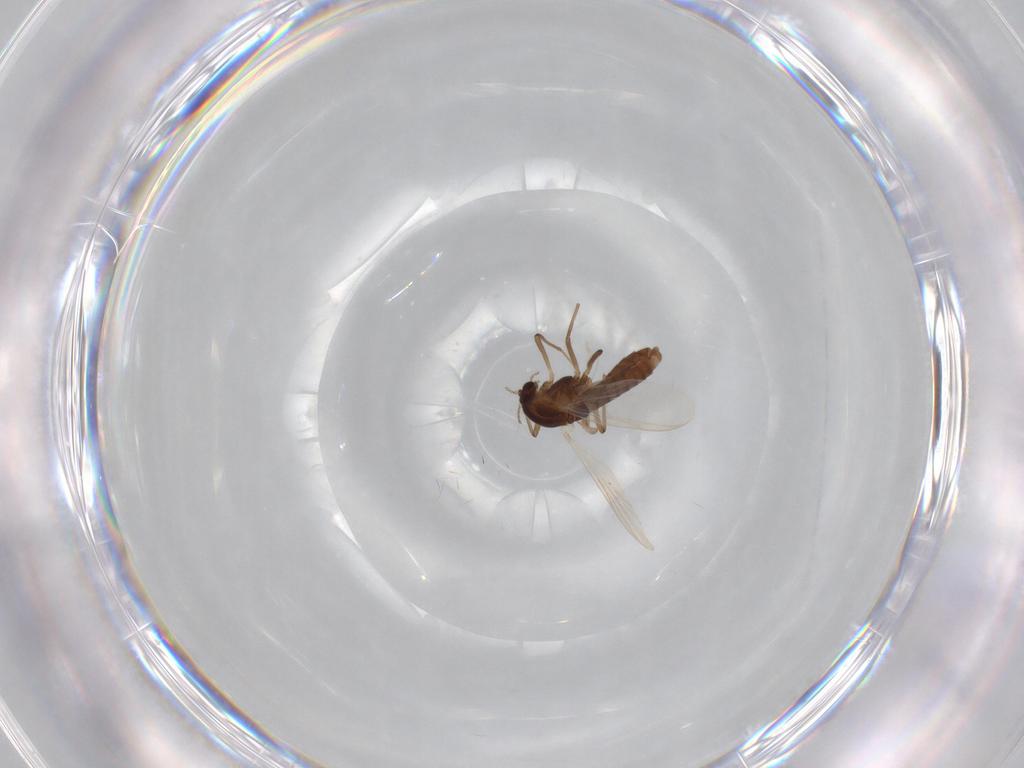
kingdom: Animalia
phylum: Arthropoda
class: Insecta
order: Diptera
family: Chironomidae
